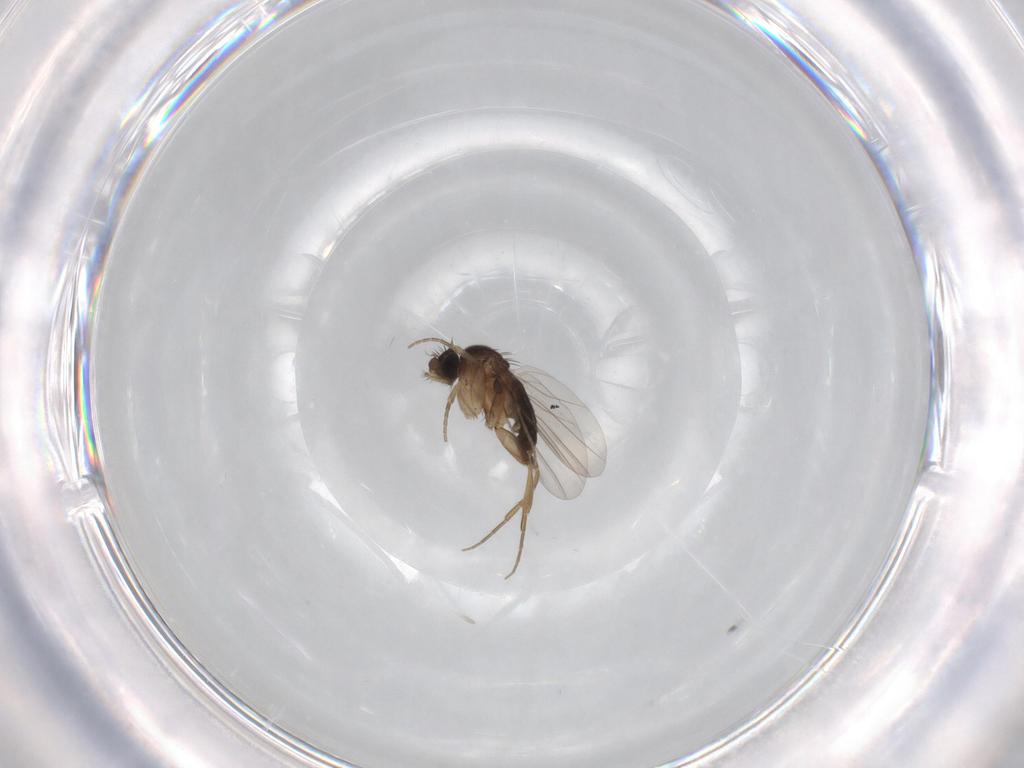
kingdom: Animalia
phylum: Arthropoda
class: Insecta
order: Diptera
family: Phoridae
